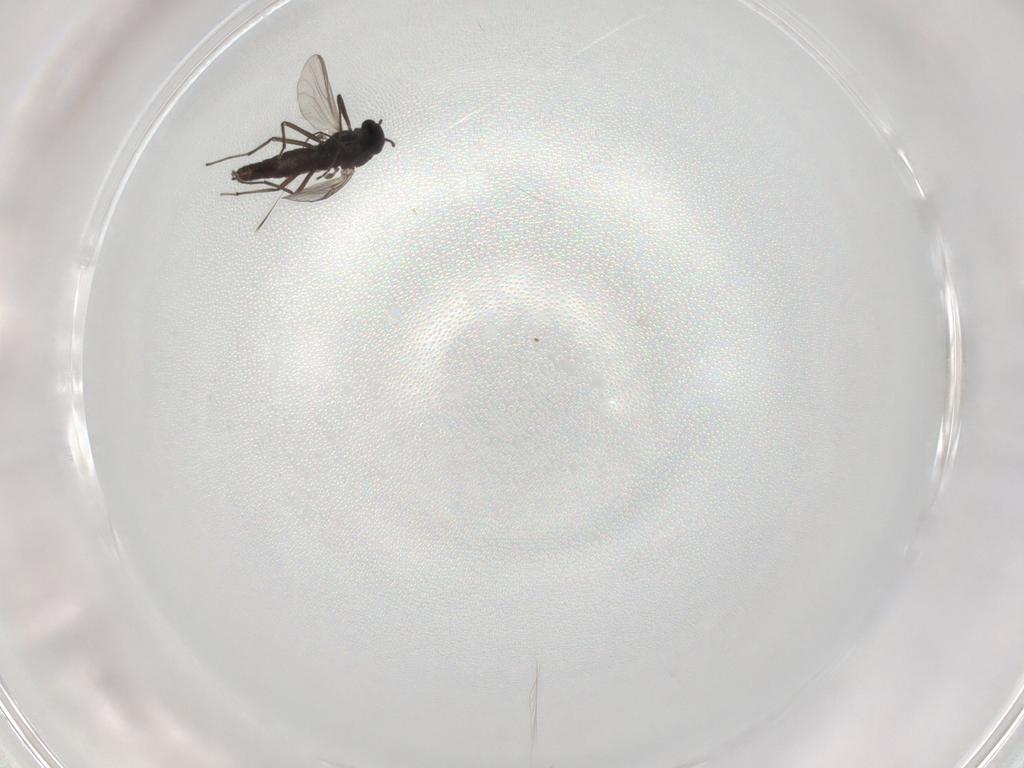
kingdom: Animalia
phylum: Arthropoda
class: Insecta
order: Diptera
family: Chironomidae
